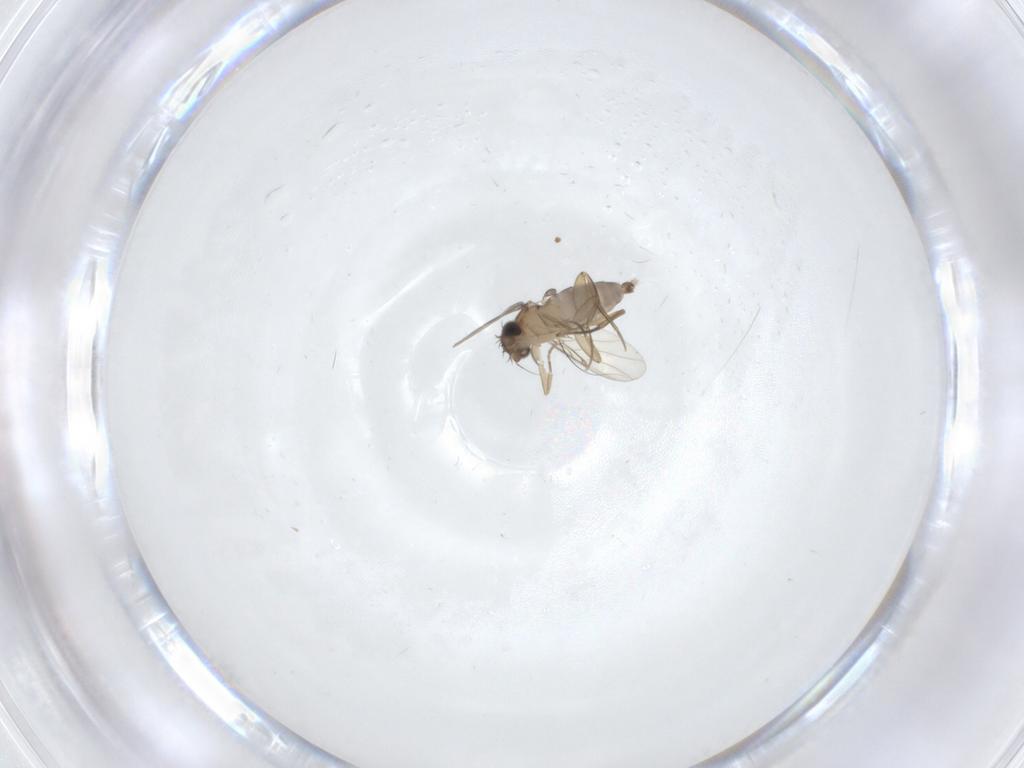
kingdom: Animalia
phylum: Arthropoda
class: Insecta
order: Diptera
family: Phoridae
